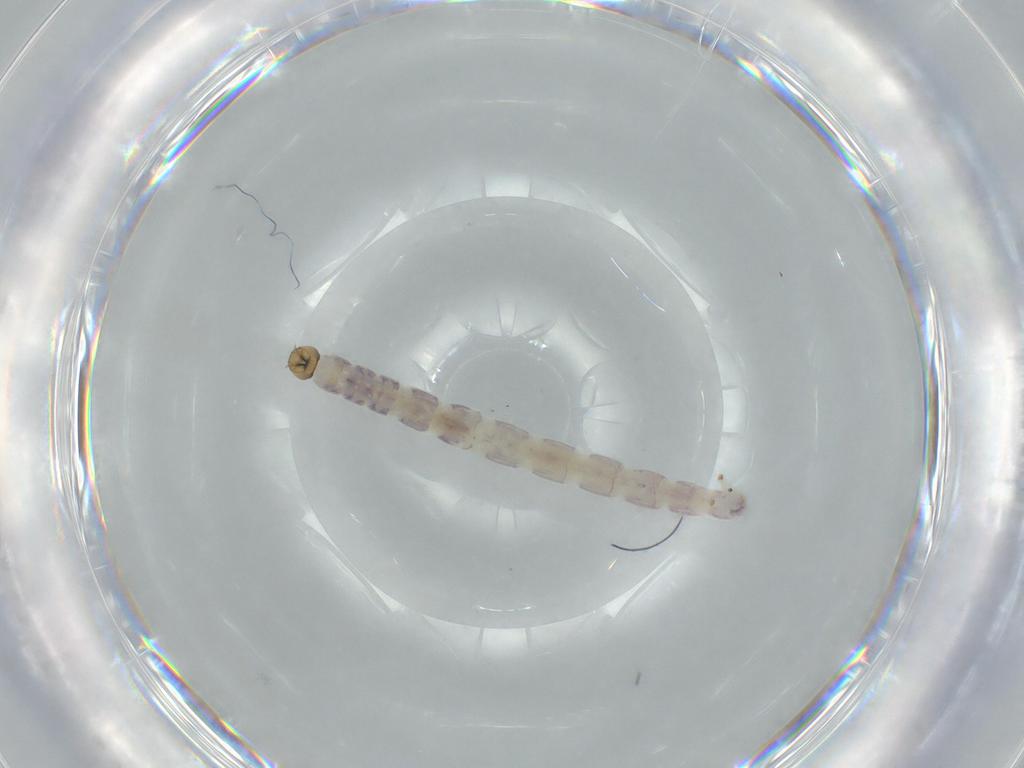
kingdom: Animalia
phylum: Arthropoda
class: Insecta
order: Diptera
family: Chironomidae
